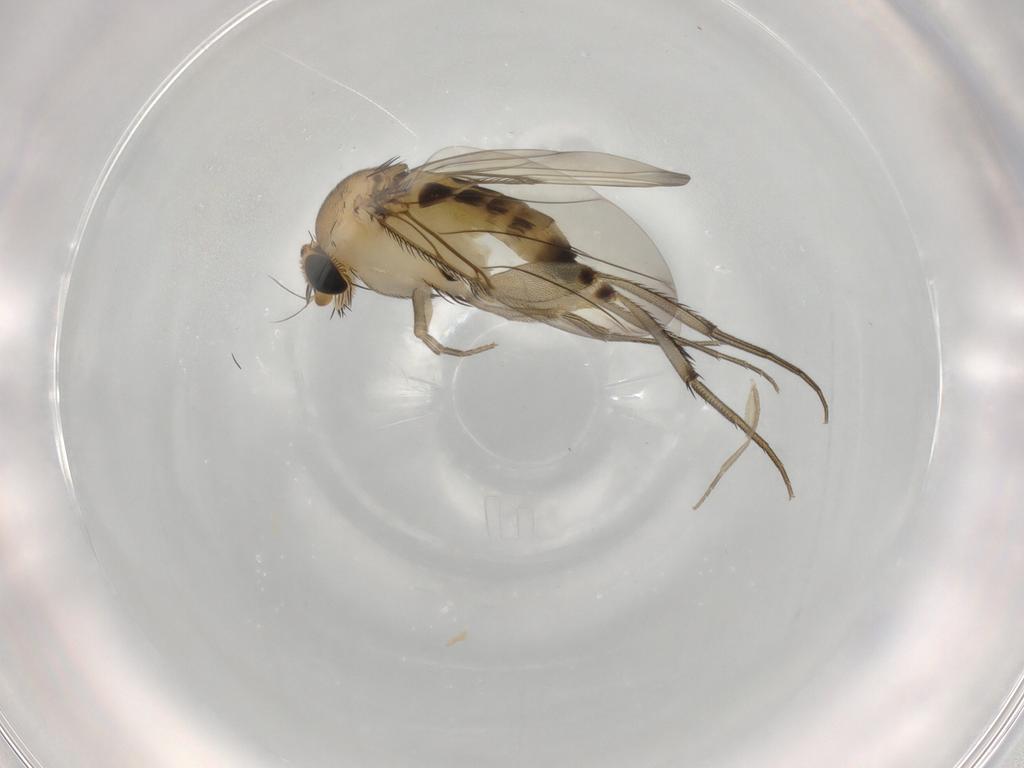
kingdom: Animalia
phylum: Arthropoda
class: Insecta
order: Diptera
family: Phoridae
